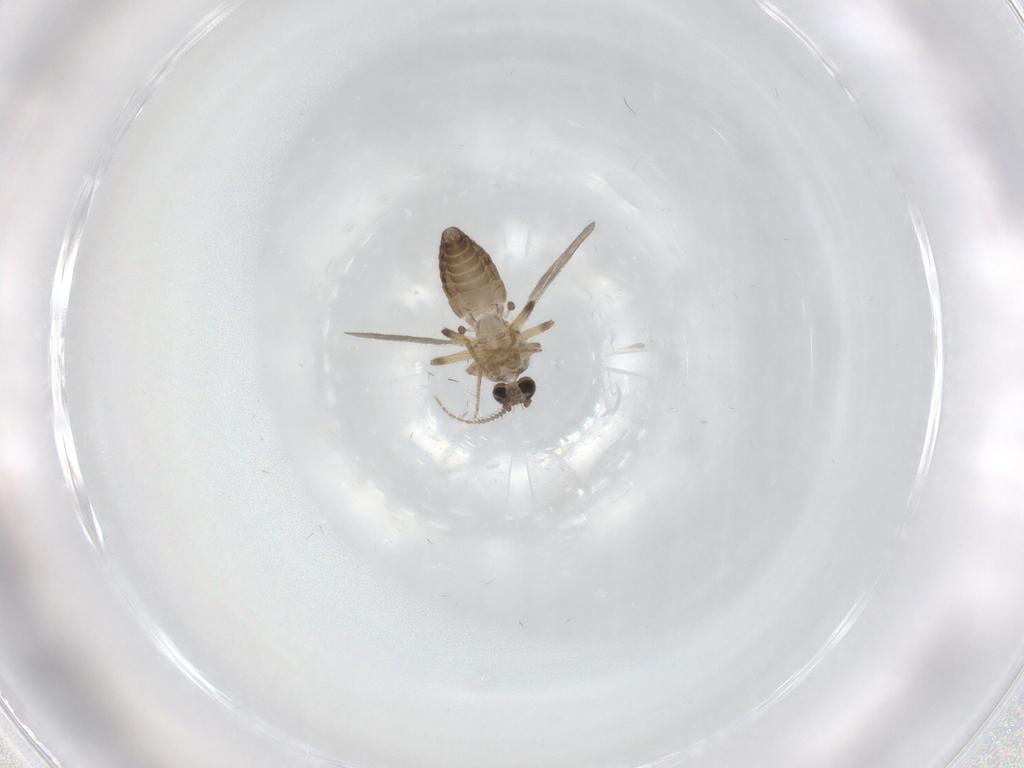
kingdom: Animalia
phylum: Arthropoda
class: Insecta
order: Diptera
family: Ceratopogonidae
